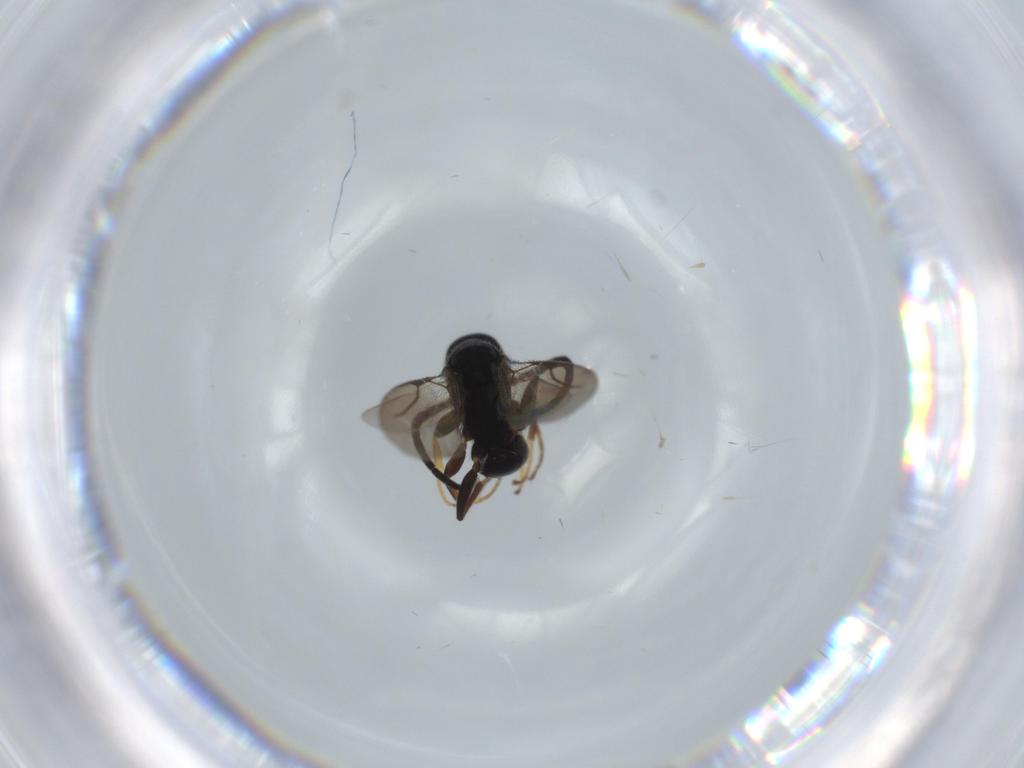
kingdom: Animalia
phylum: Arthropoda
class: Insecta
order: Hymenoptera
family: Bethylidae
